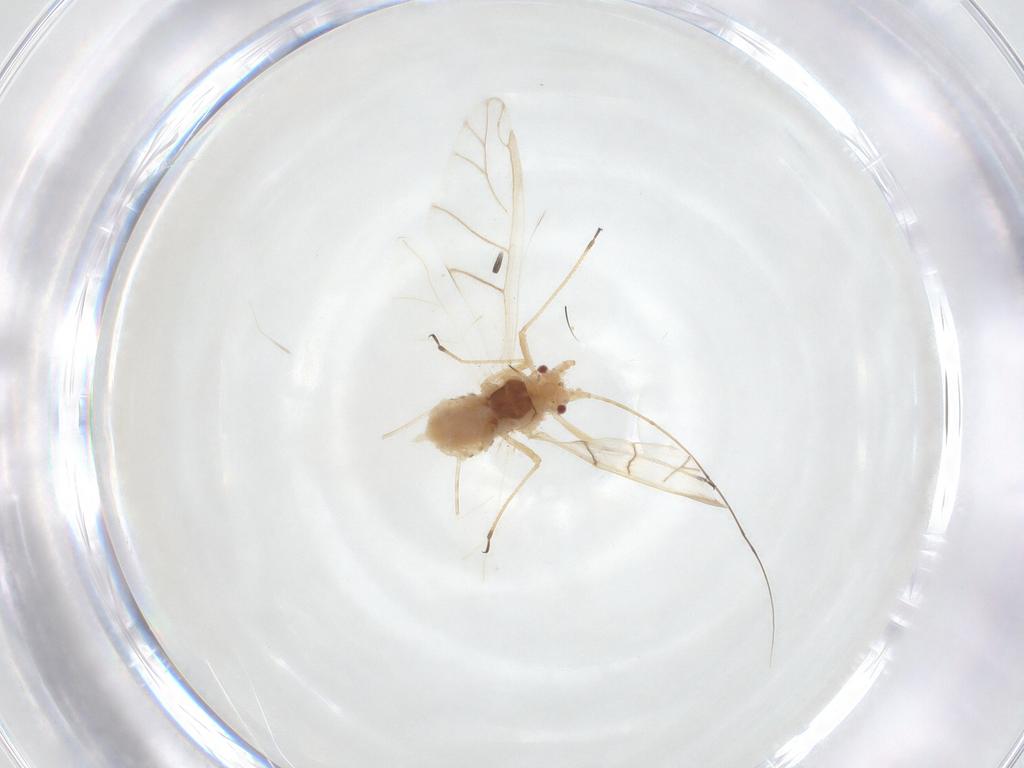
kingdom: Animalia
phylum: Arthropoda
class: Insecta
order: Hemiptera
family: Aphididae
